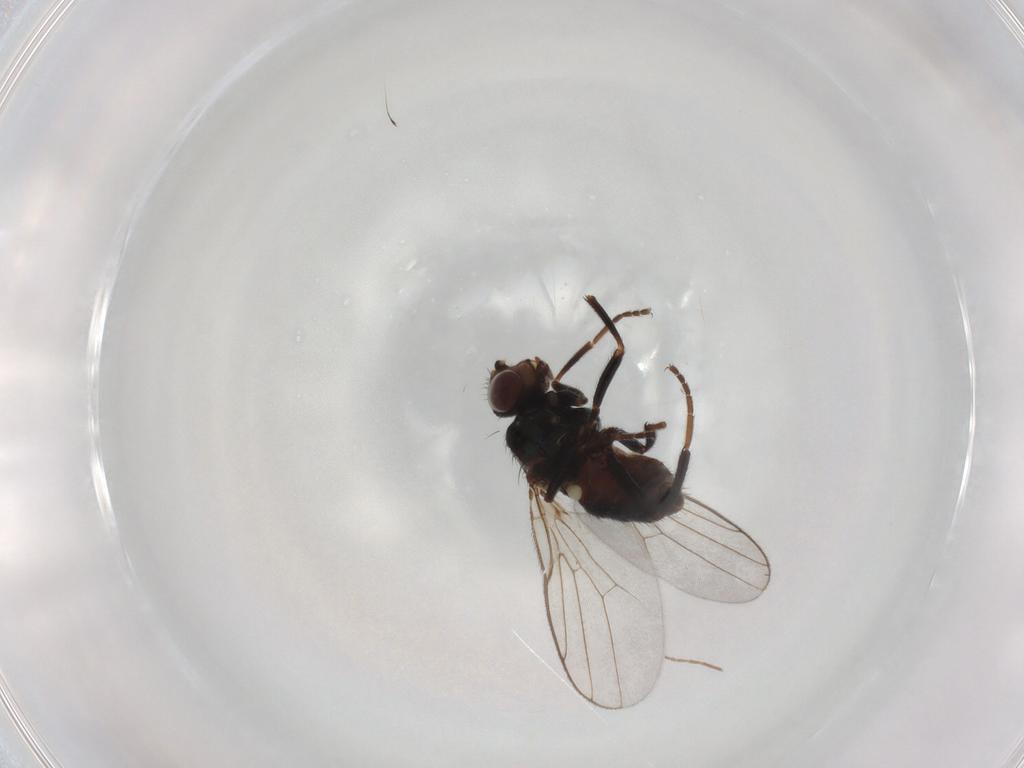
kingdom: Animalia
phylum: Arthropoda
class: Insecta
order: Diptera
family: Chloropidae
